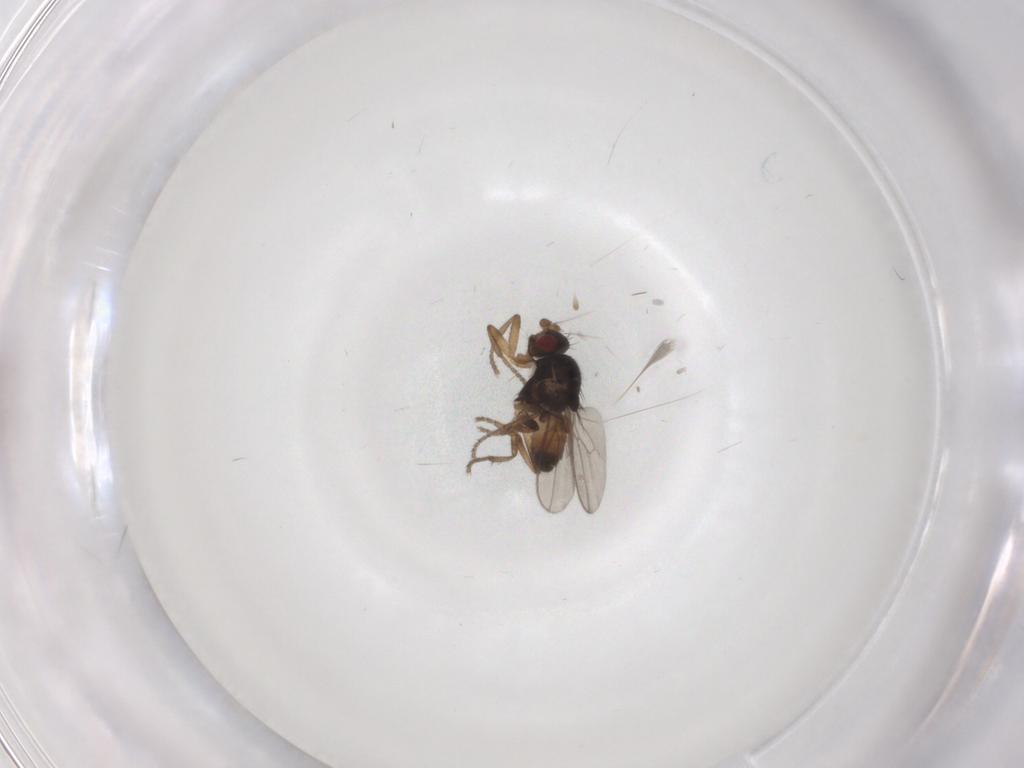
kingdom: Animalia
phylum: Arthropoda
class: Insecta
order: Diptera
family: Sphaeroceridae
